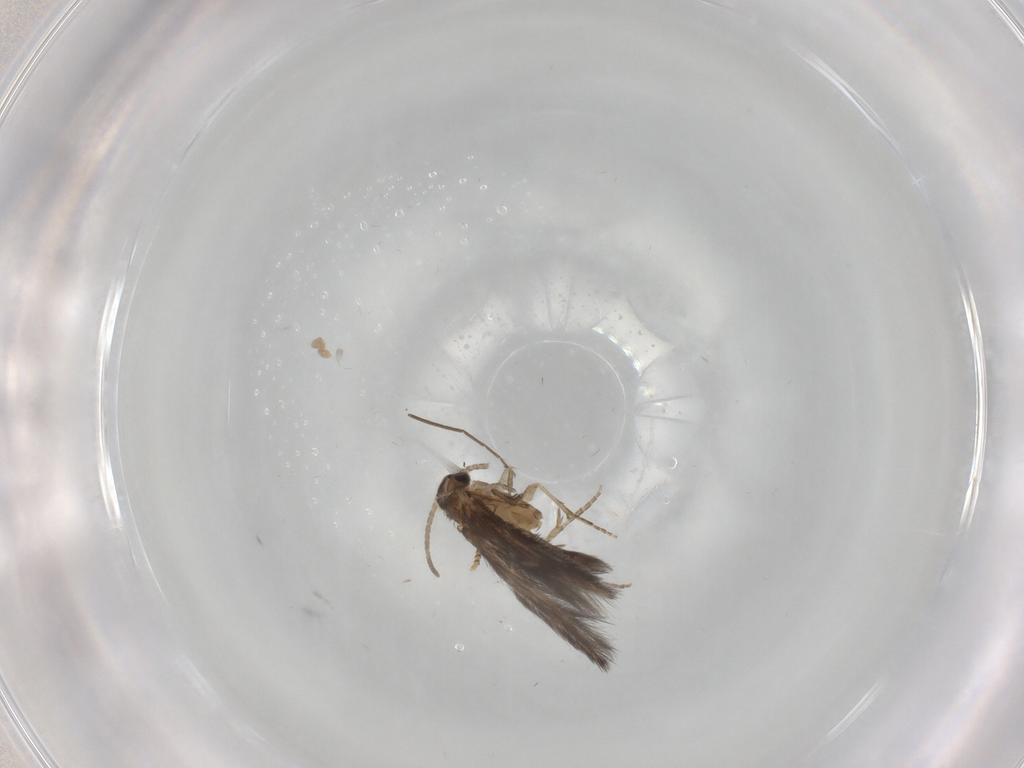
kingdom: Animalia
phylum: Arthropoda
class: Insecta
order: Trichoptera
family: Hydroptilidae
